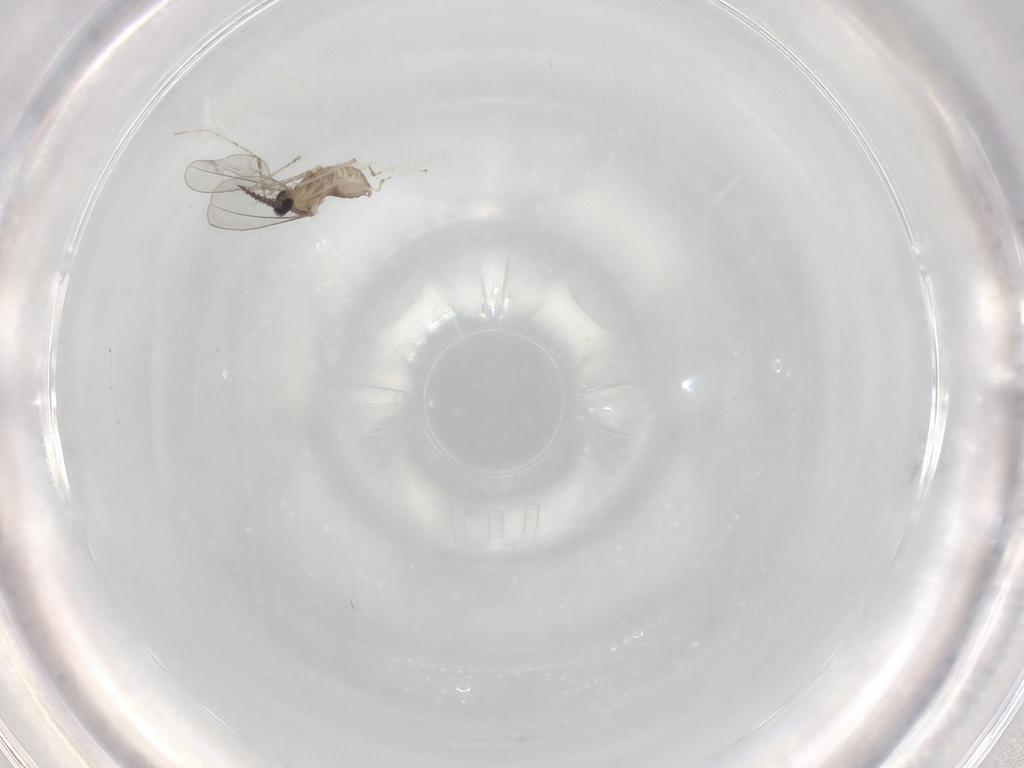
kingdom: Animalia
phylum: Arthropoda
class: Insecta
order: Diptera
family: Cecidomyiidae
